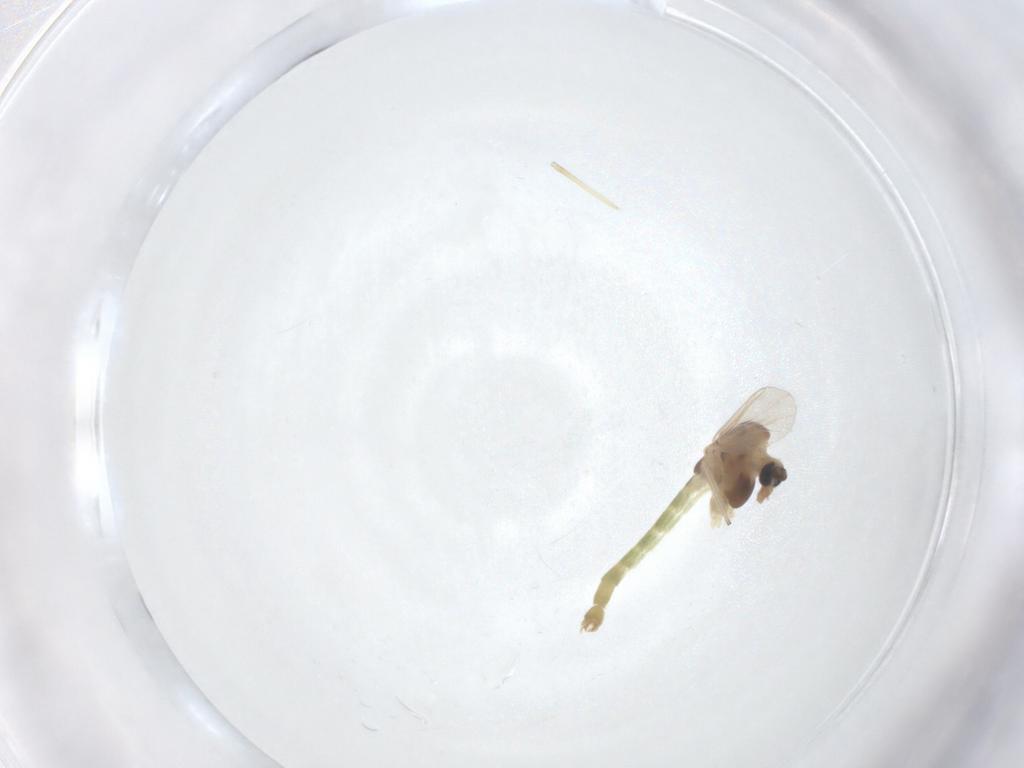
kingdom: Animalia
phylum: Arthropoda
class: Insecta
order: Diptera
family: Chironomidae
